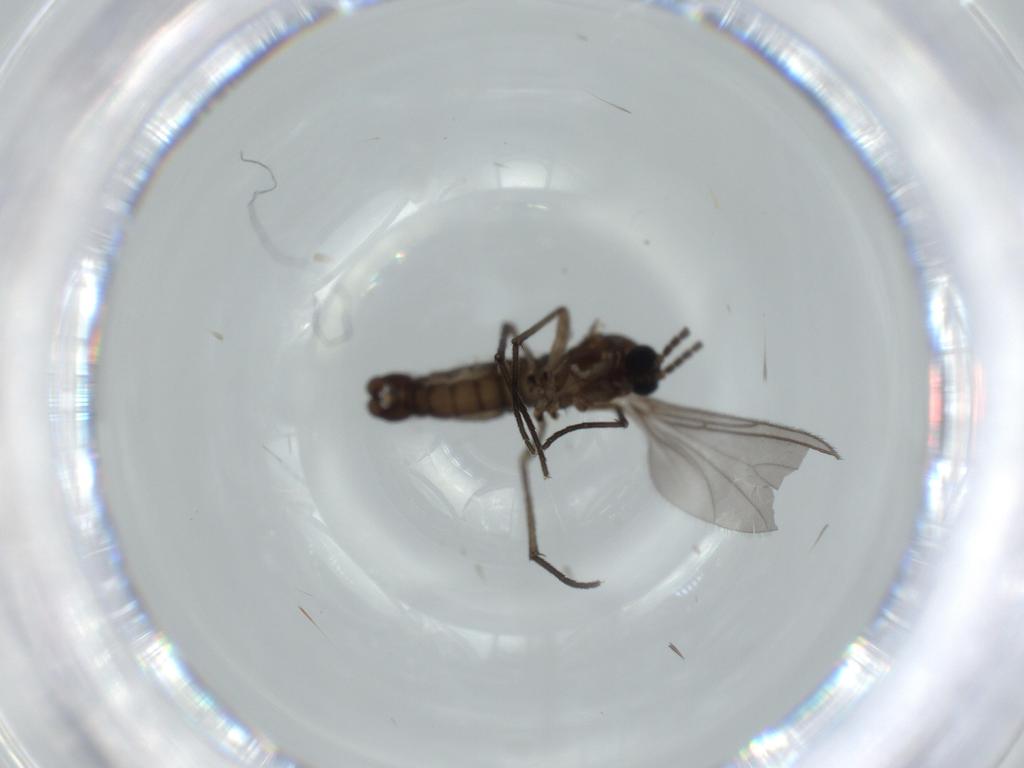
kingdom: Animalia
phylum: Arthropoda
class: Insecta
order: Diptera
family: Sciaridae
